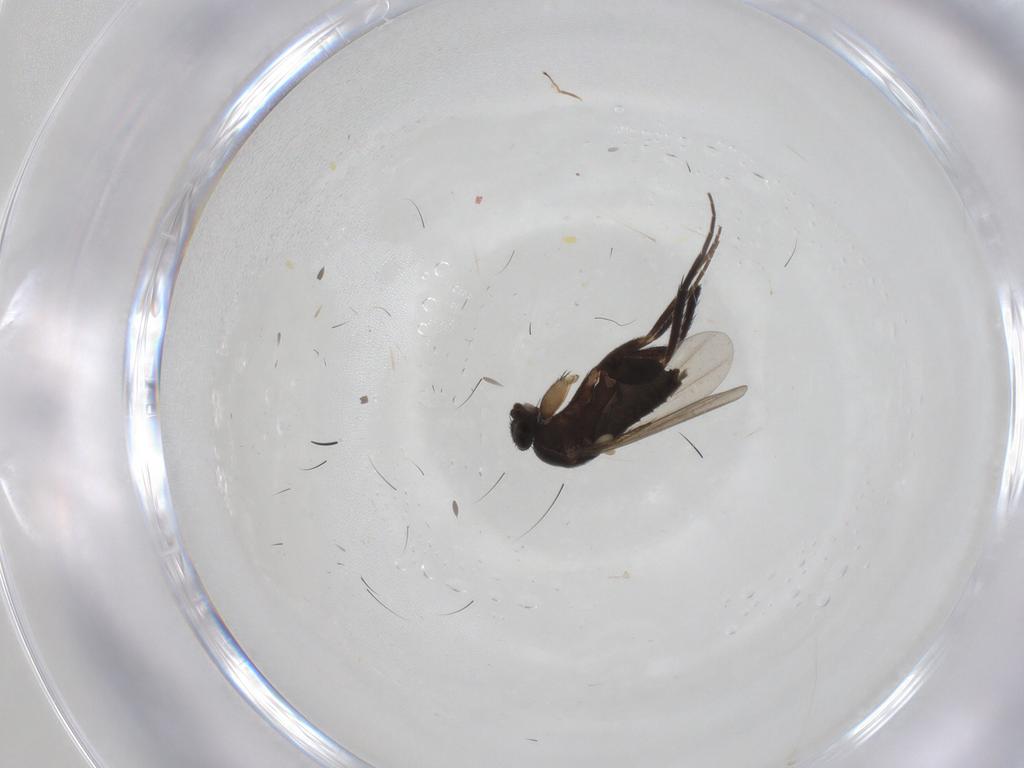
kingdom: Animalia
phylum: Arthropoda
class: Insecta
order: Diptera
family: Phoridae
